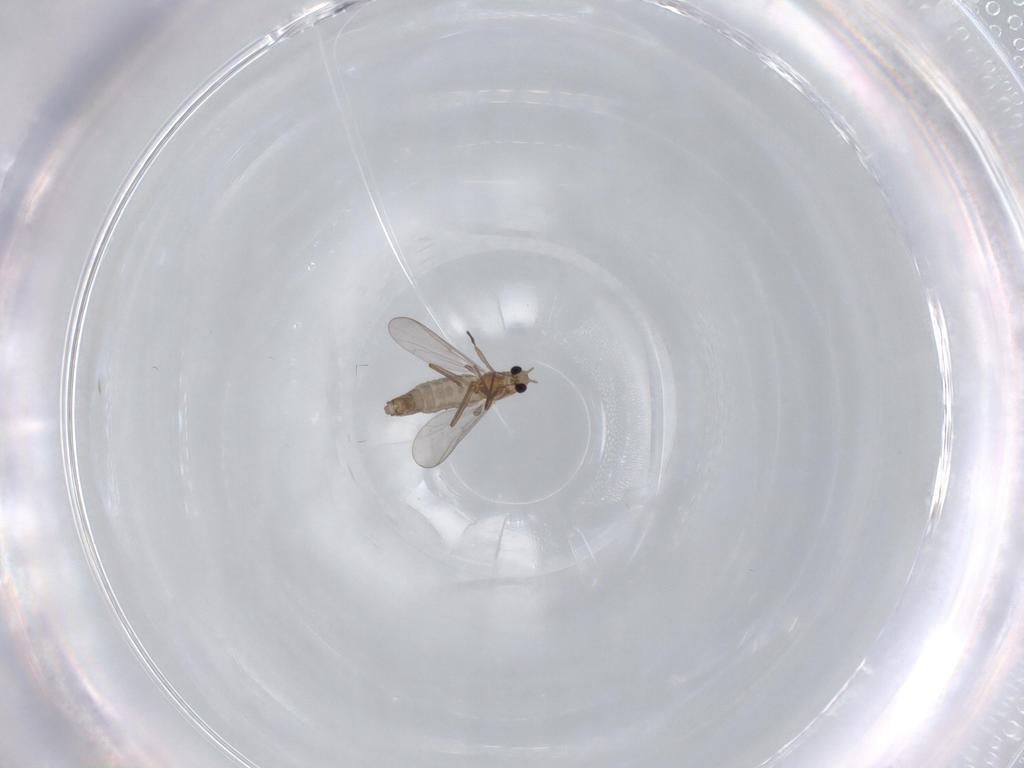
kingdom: Animalia
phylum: Arthropoda
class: Insecta
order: Diptera
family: Chironomidae
